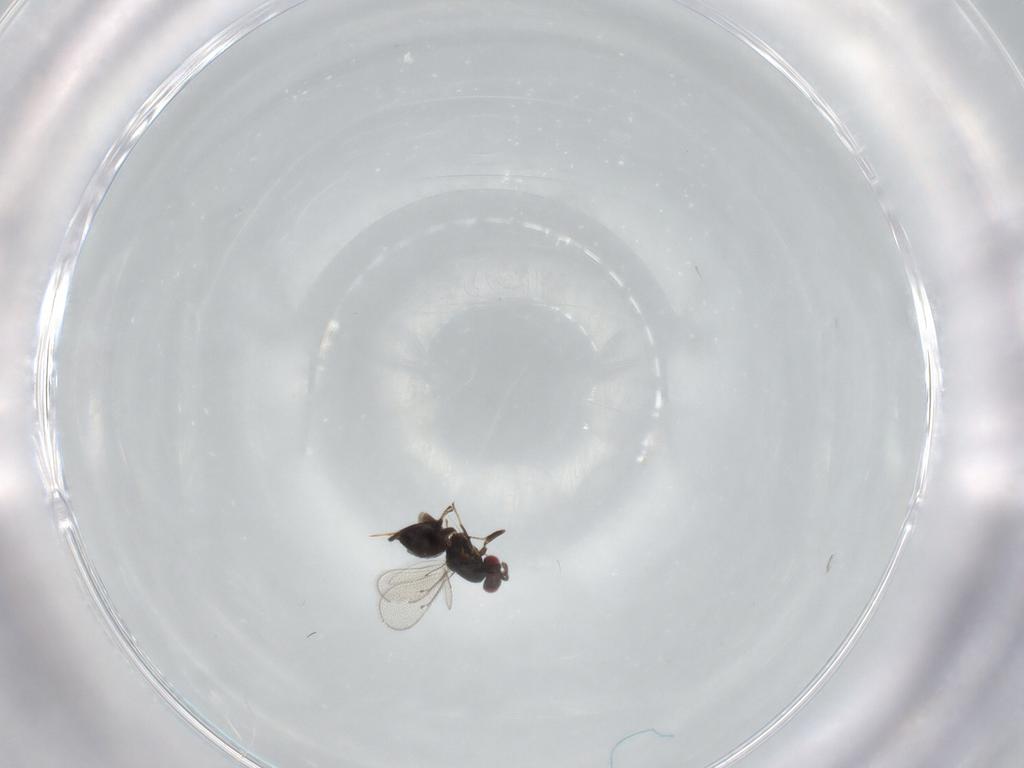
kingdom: Animalia
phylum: Arthropoda
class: Insecta
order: Hymenoptera
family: Eulophidae
